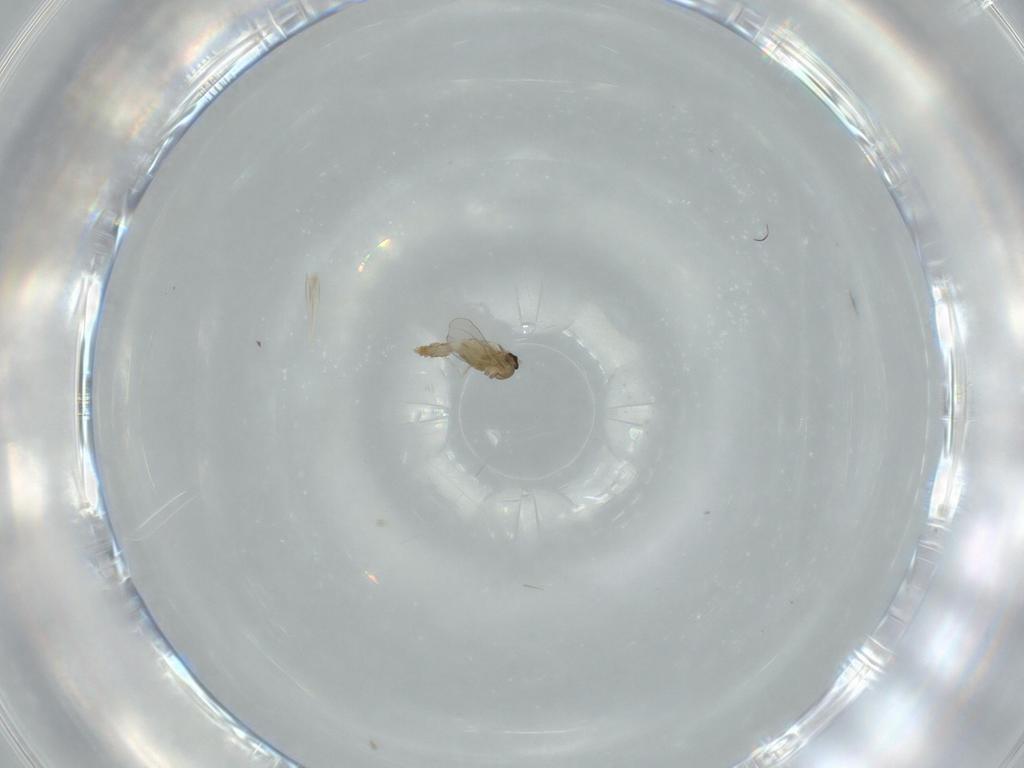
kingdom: Animalia
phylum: Arthropoda
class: Insecta
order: Diptera
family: Cecidomyiidae
